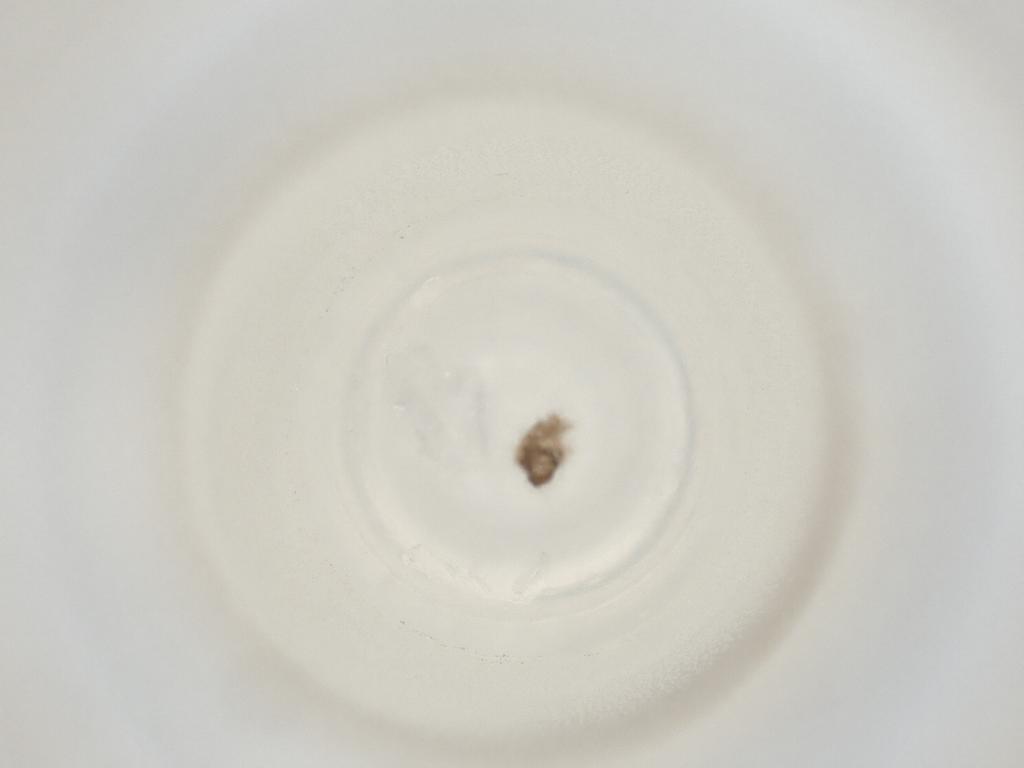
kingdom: Animalia
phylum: Arthropoda
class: Insecta
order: Diptera
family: Cecidomyiidae
